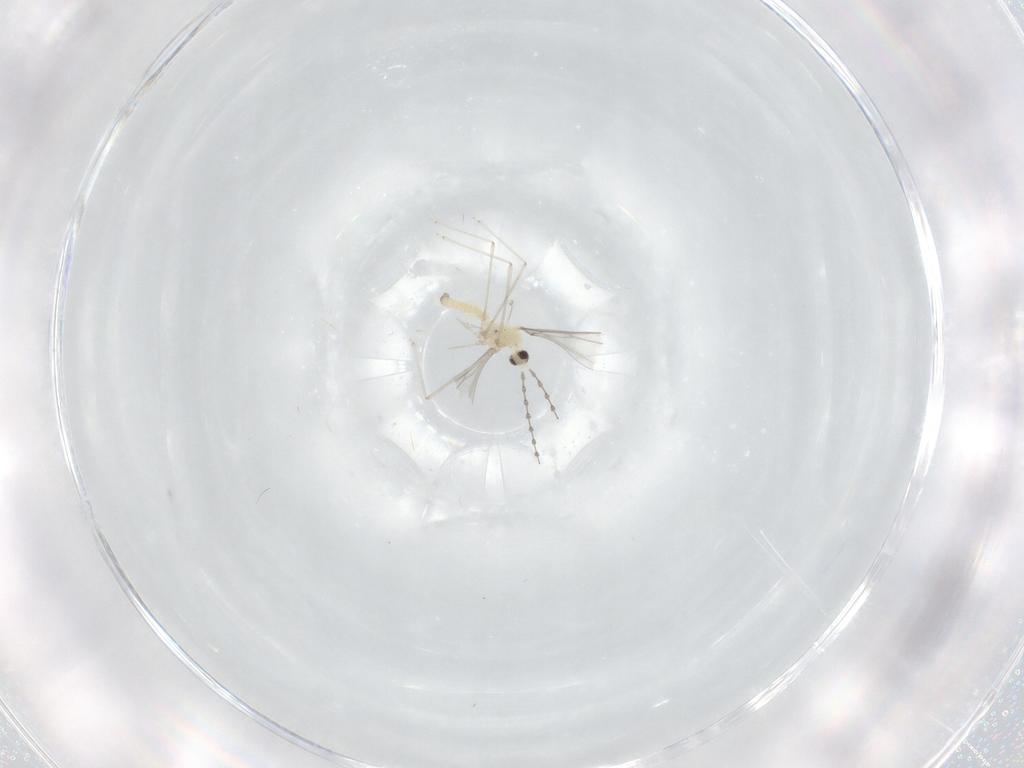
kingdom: Animalia
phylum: Arthropoda
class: Insecta
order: Diptera
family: Cecidomyiidae
